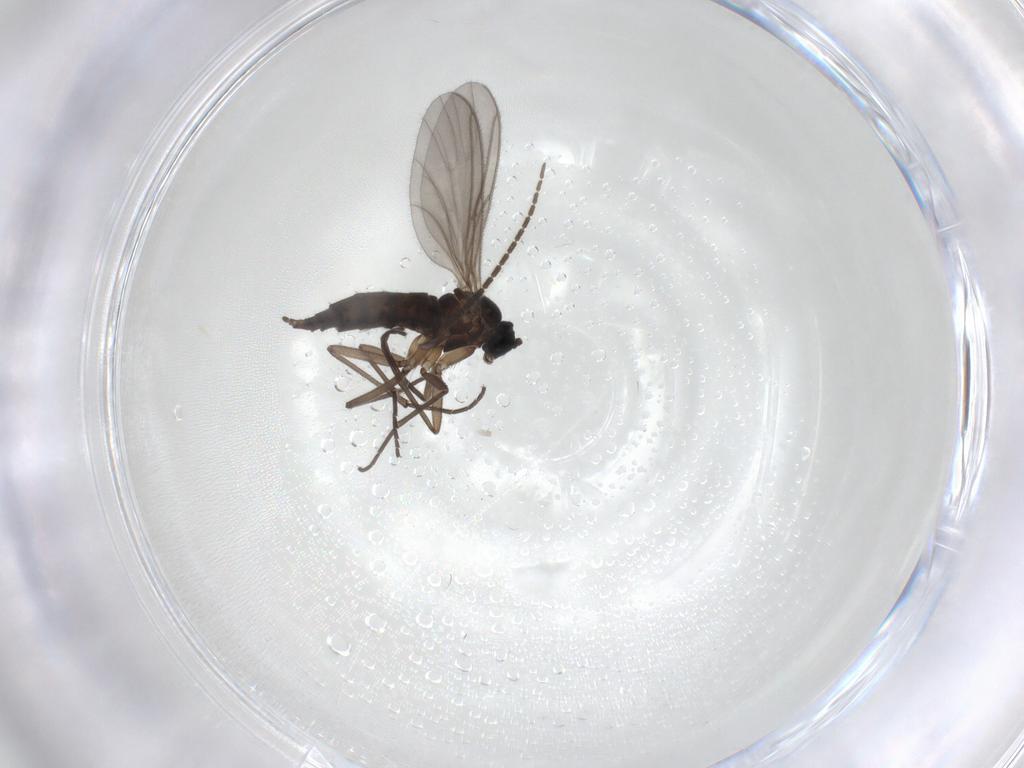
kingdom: Animalia
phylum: Arthropoda
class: Insecta
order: Diptera
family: Sciaridae
